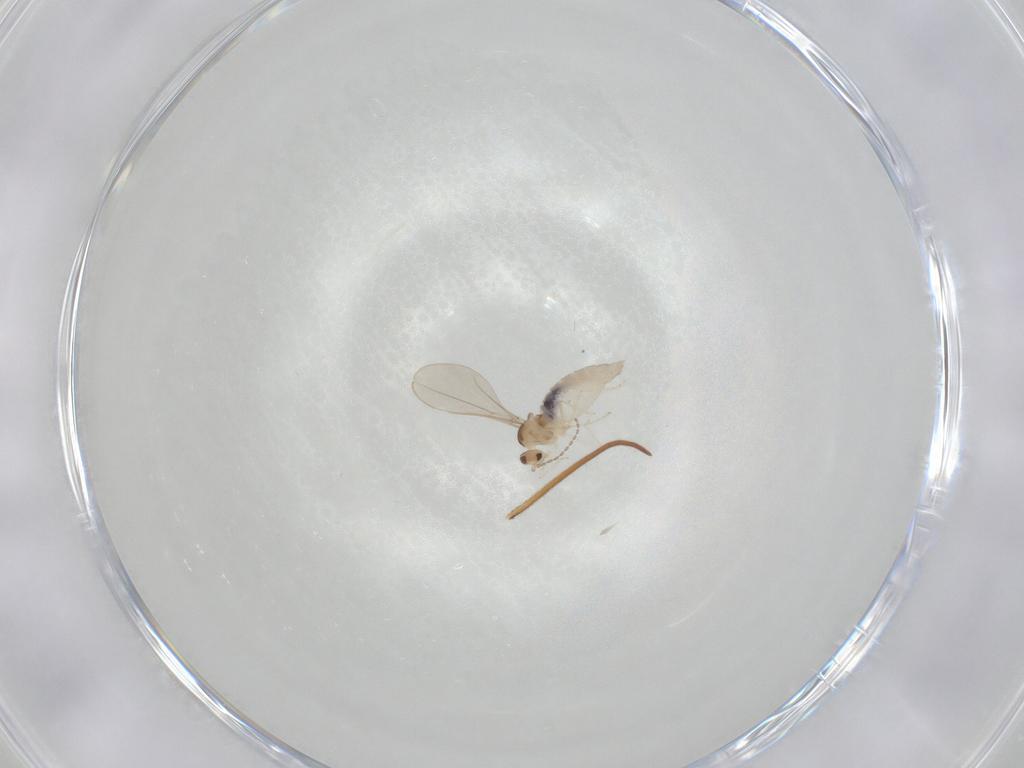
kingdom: Animalia
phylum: Arthropoda
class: Insecta
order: Diptera
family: Cecidomyiidae
